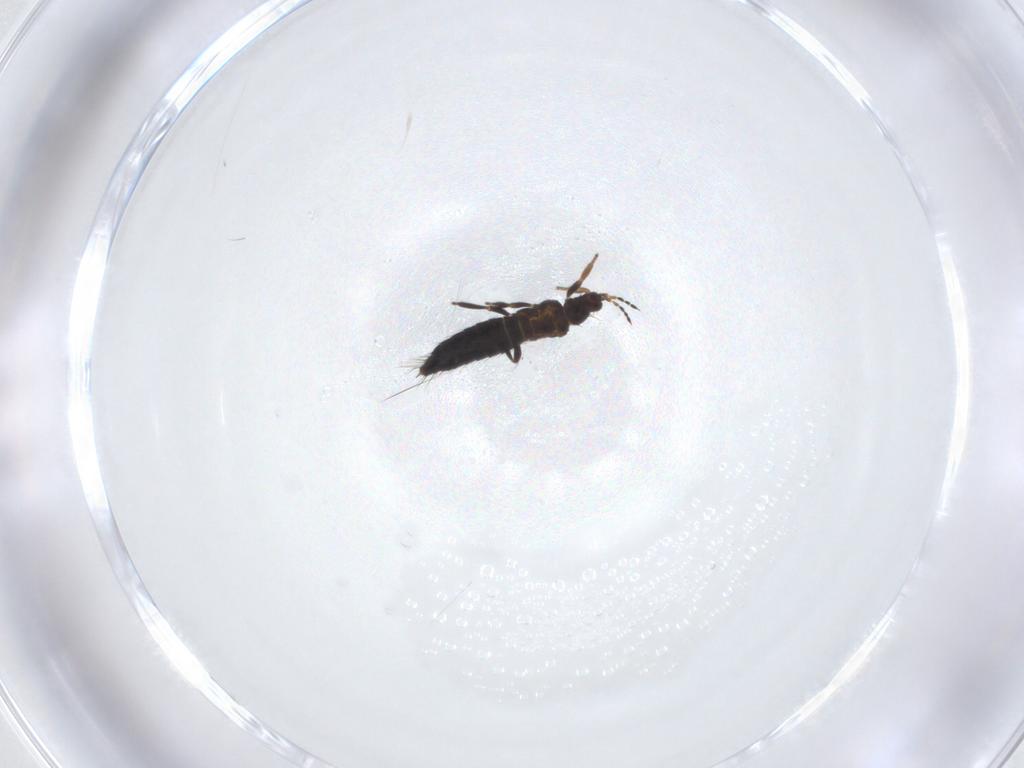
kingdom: Animalia
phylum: Arthropoda
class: Insecta
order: Thysanoptera
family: Thripidae
